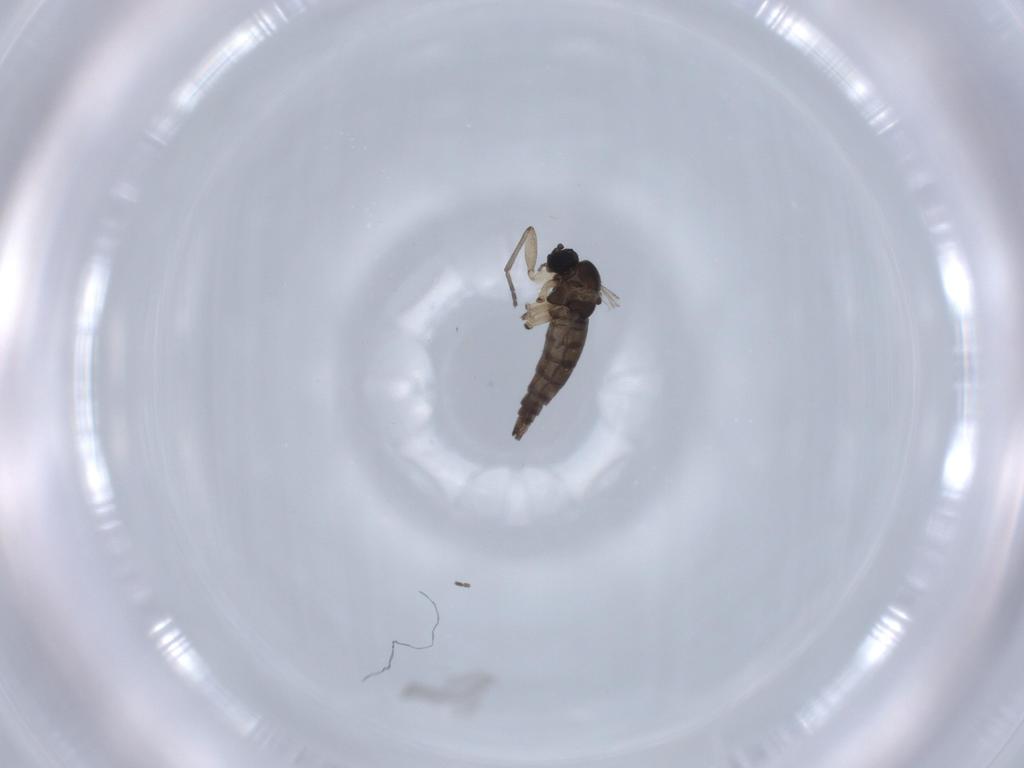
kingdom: Animalia
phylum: Arthropoda
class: Insecta
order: Diptera
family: Sciaridae
